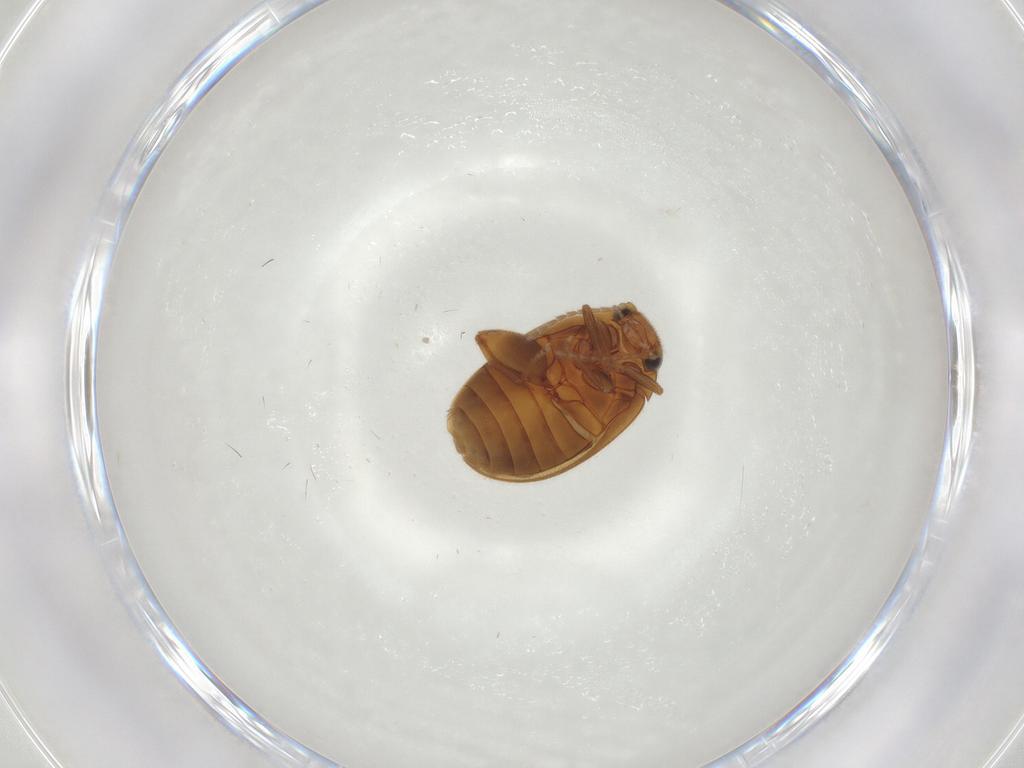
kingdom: Animalia
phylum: Arthropoda
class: Insecta
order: Coleoptera
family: Scirtidae
